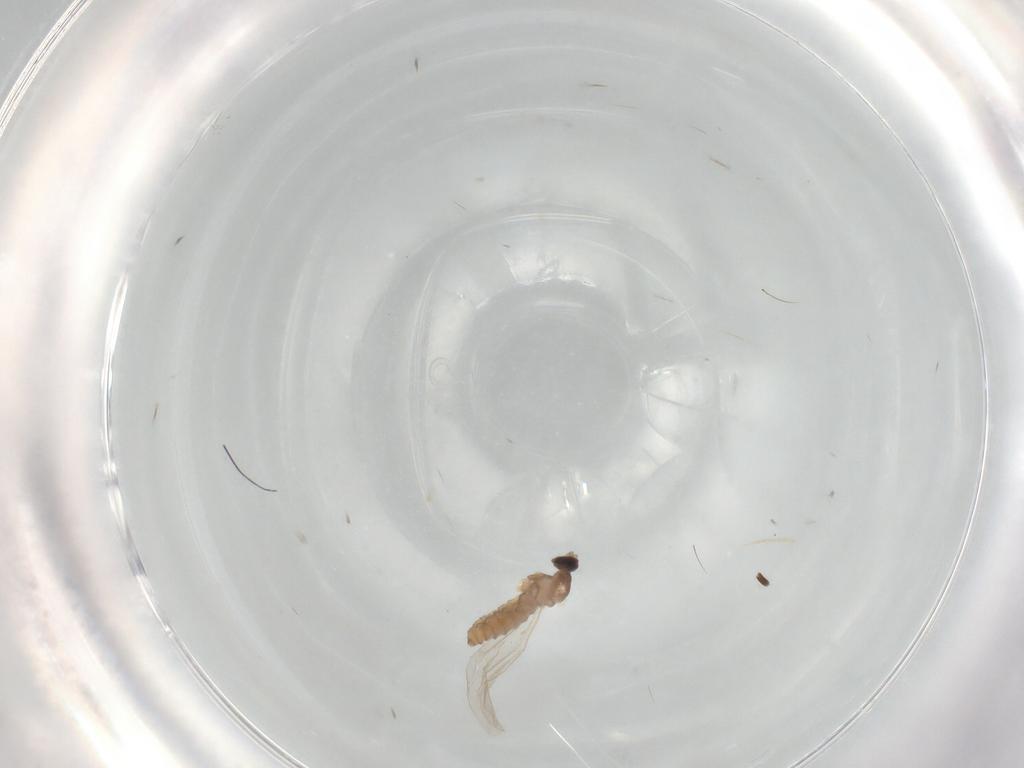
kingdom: Animalia
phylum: Arthropoda
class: Insecta
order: Diptera
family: Cecidomyiidae
